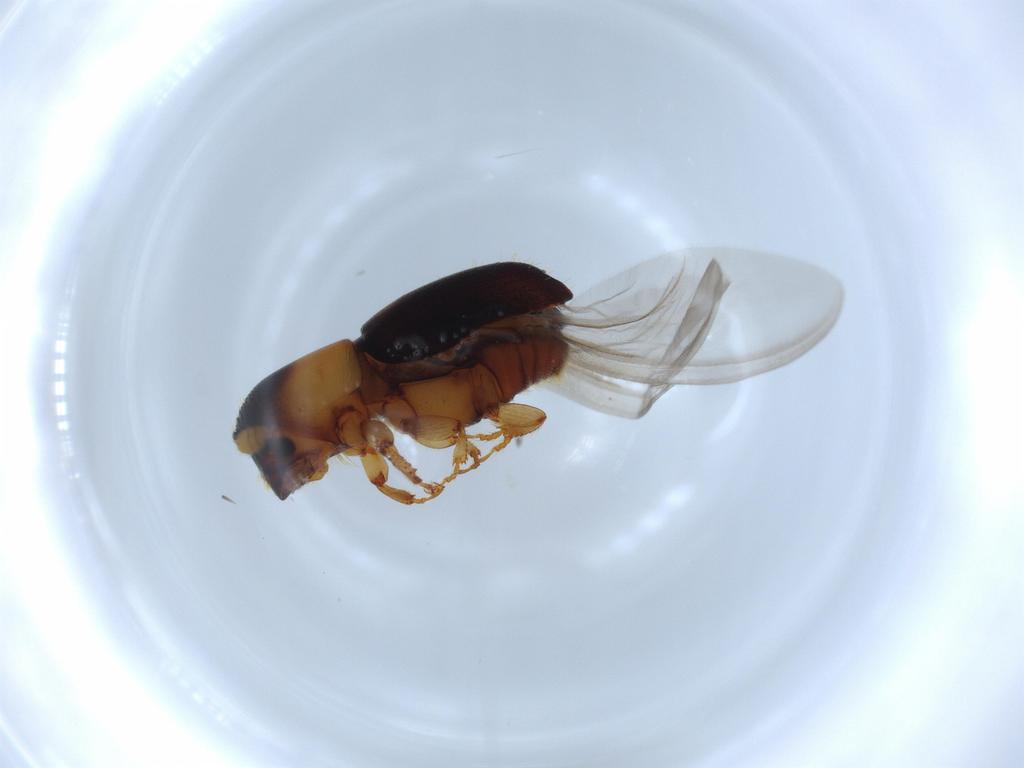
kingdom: Animalia
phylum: Arthropoda
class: Insecta
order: Coleoptera
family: Curculionidae
